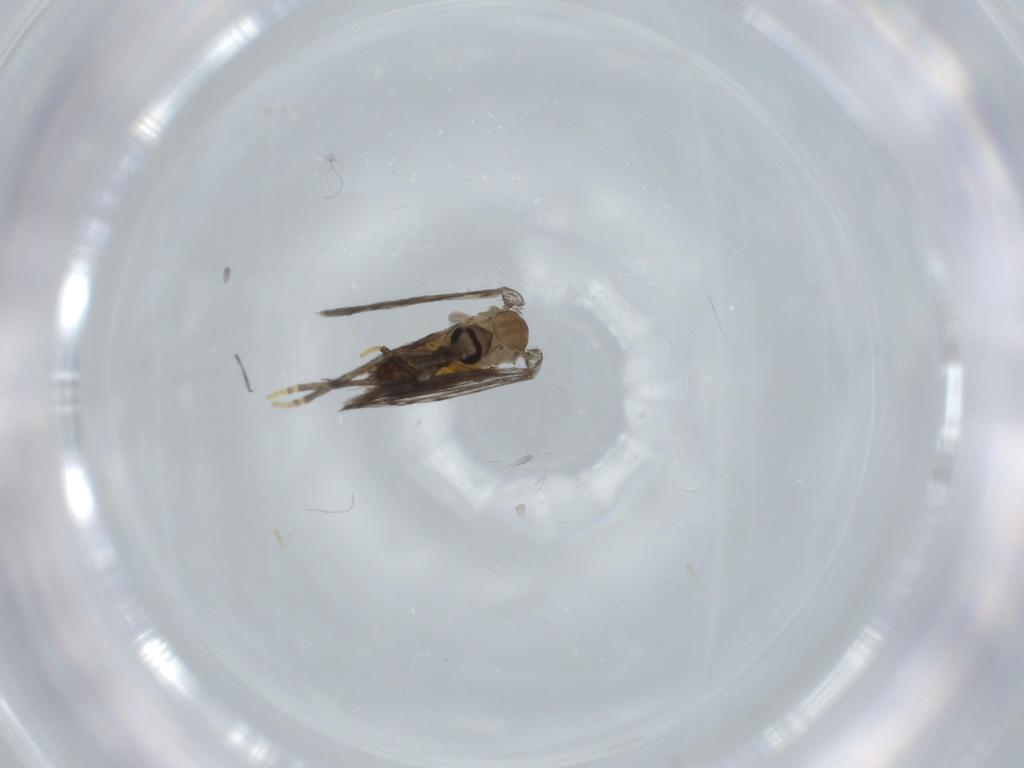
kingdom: Animalia
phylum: Arthropoda
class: Insecta
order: Diptera
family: Psychodidae
